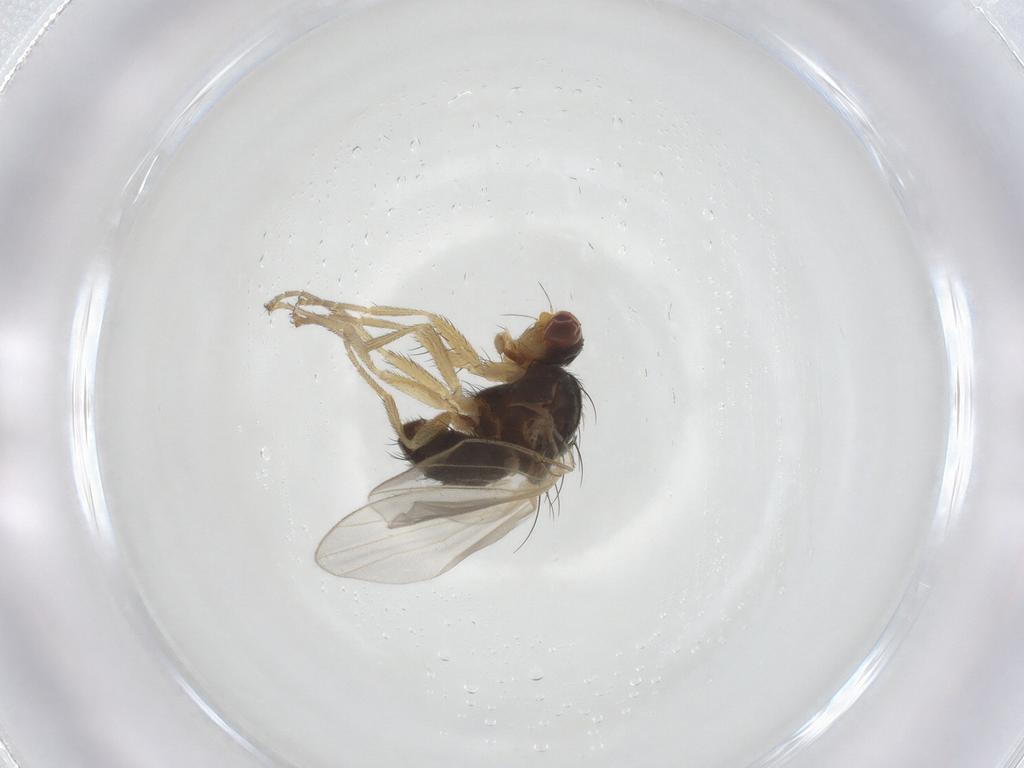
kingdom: Animalia
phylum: Arthropoda
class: Insecta
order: Diptera
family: Heleomyzidae
